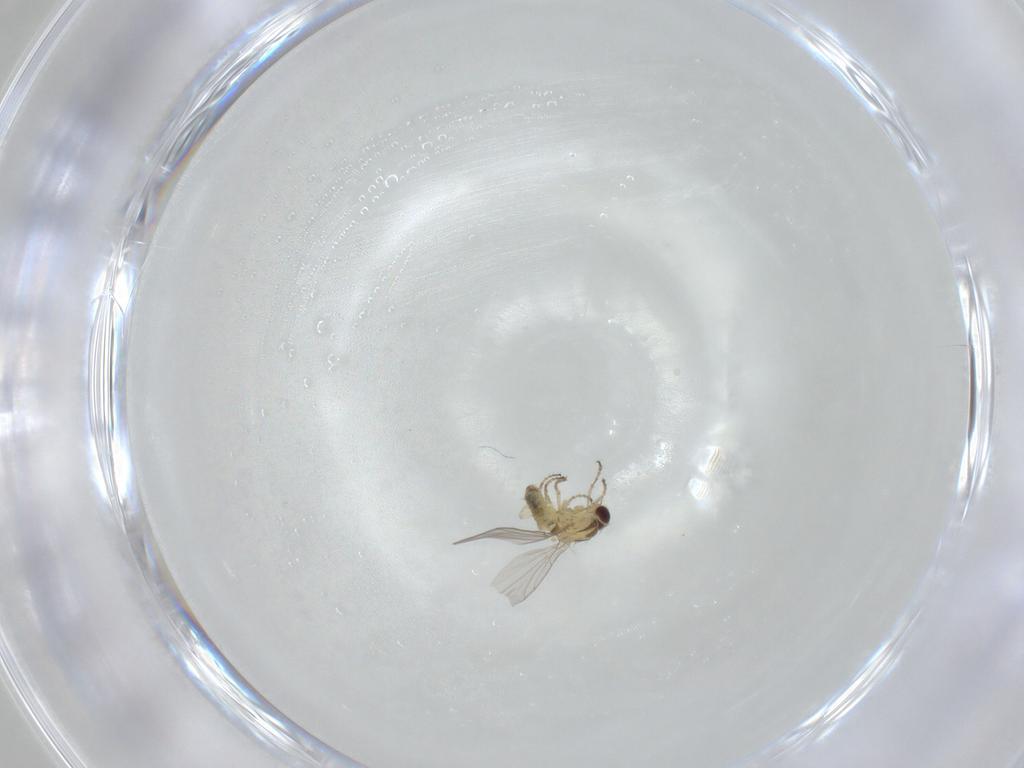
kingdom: Animalia
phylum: Arthropoda
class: Insecta
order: Diptera
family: Agromyzidae
